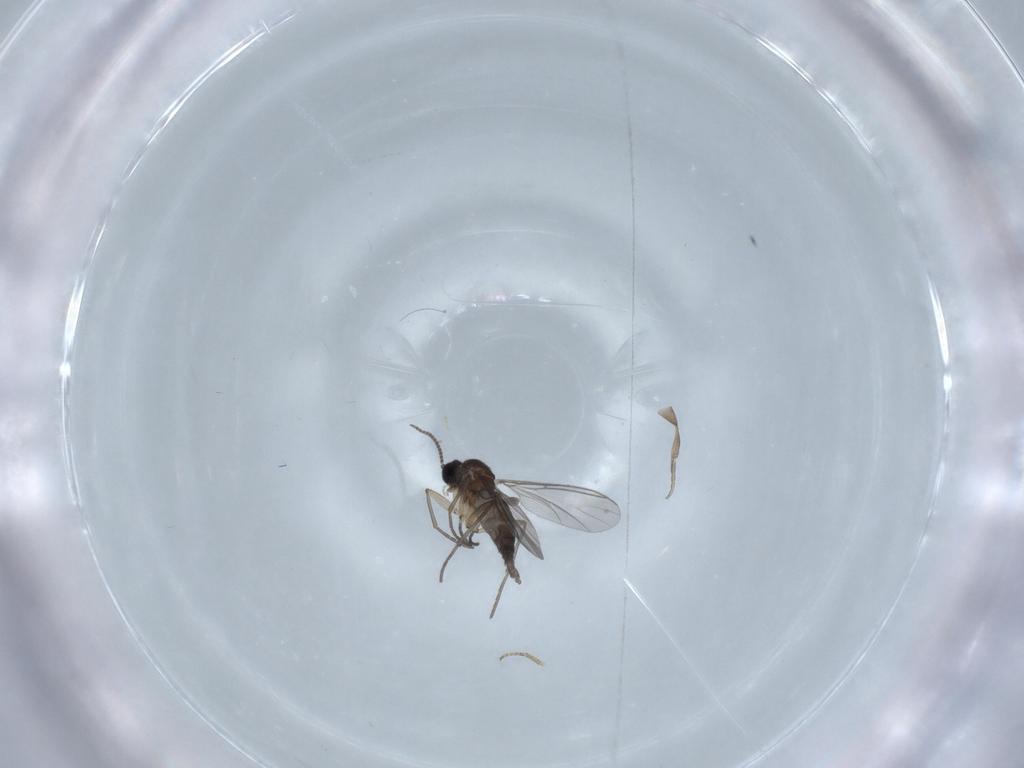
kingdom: Animalia
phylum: Arthropoda
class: Insecta
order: Diptera
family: Sciaridae
